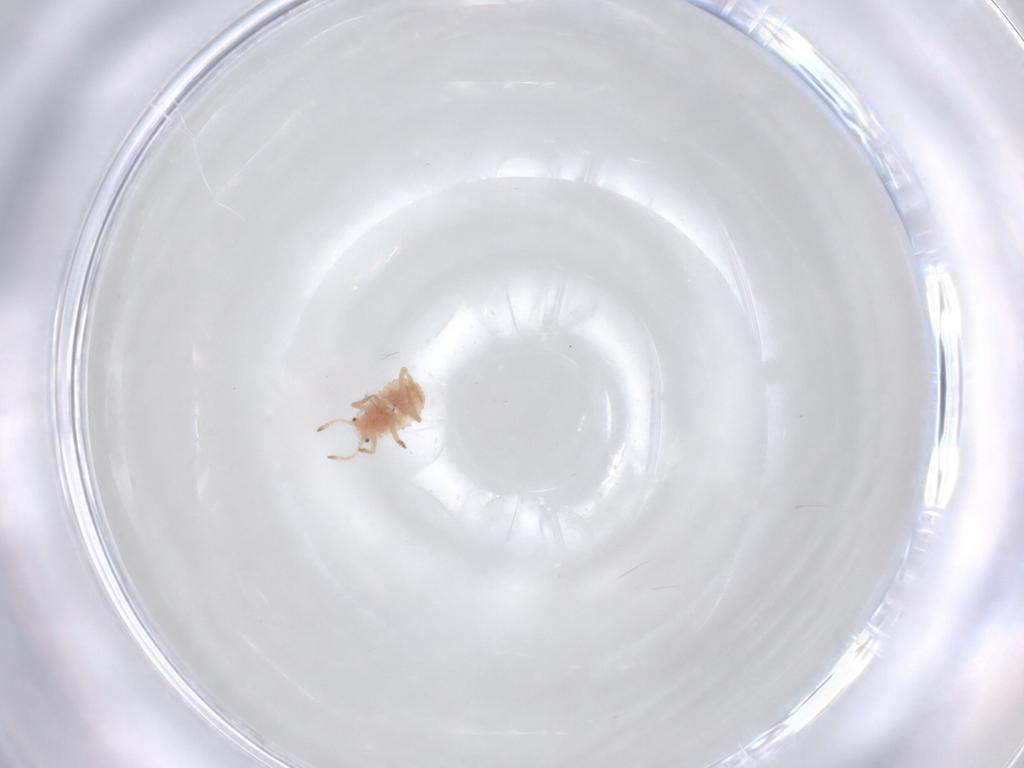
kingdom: Animalia
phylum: Arthropoda
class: Insecta
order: Hemiptera
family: Coccoidea_incertae_sedis
